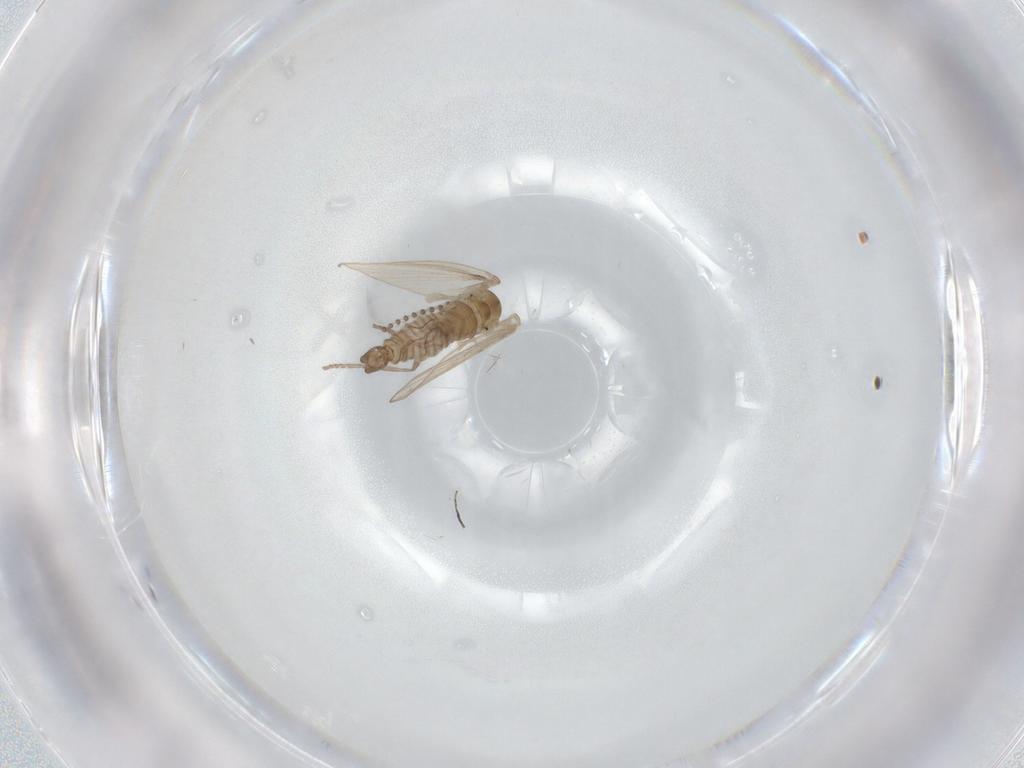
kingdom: Animalia
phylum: Arthropoda
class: Insecta
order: Diptera
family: Psychodidae
